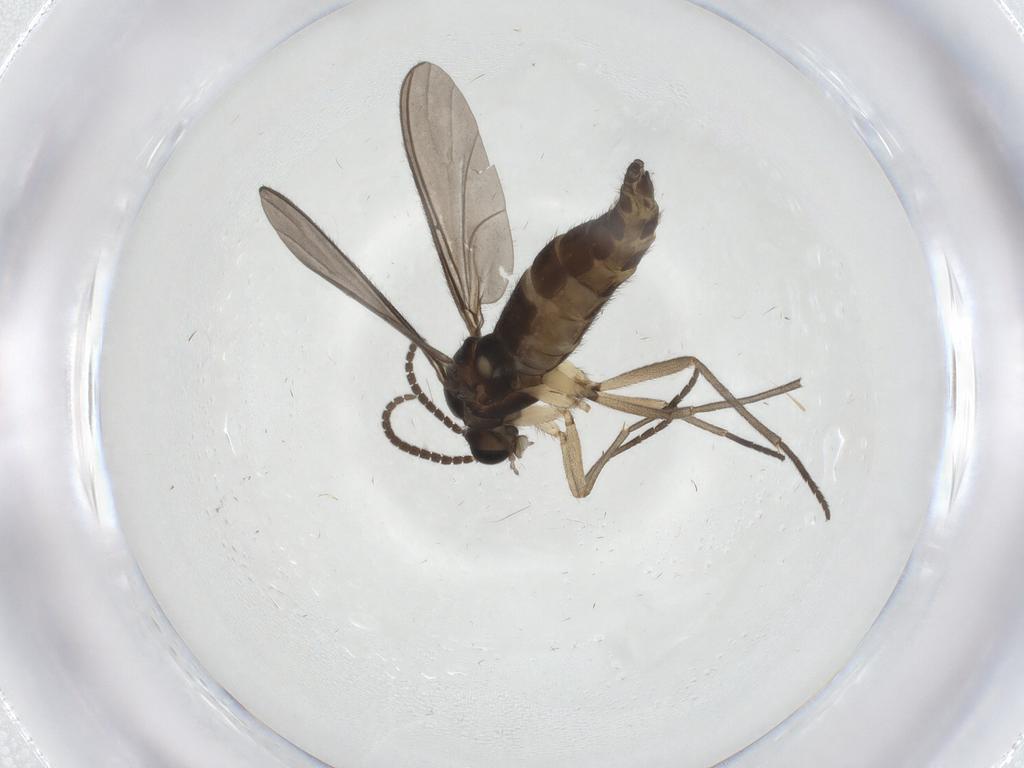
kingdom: Animalia
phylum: Arthropoda
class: Insecta
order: Diptera
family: Sciaridae
